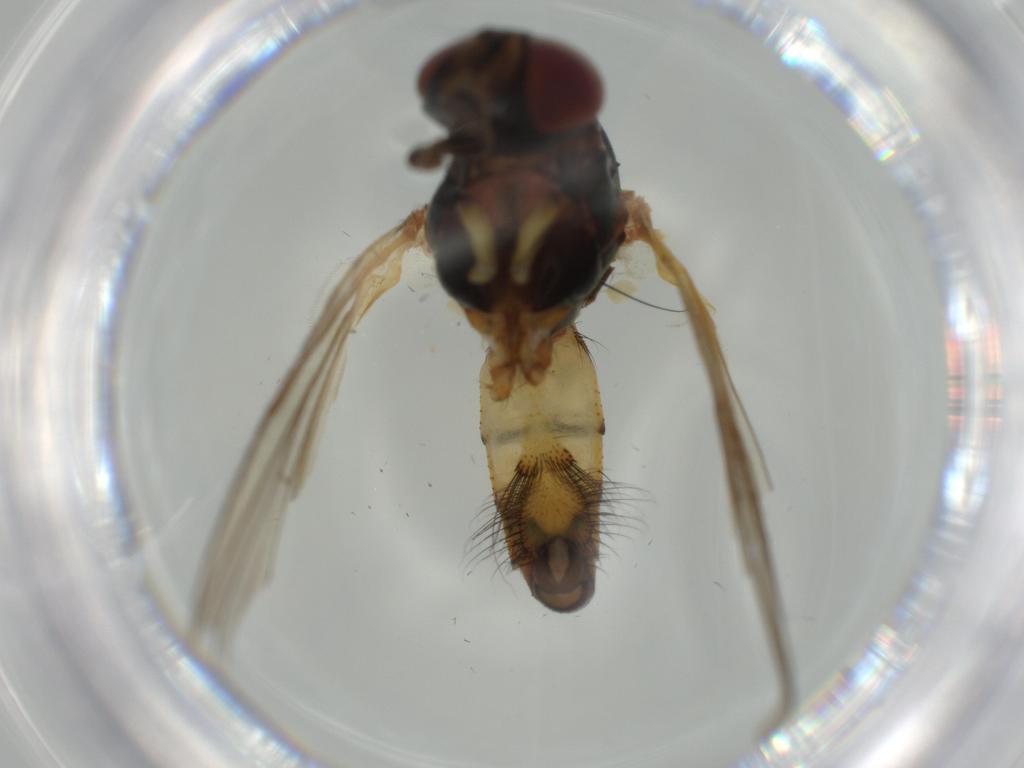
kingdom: Animalia
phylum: Arthropoda
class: Insecta
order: Diptera
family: Anthomyiidae
